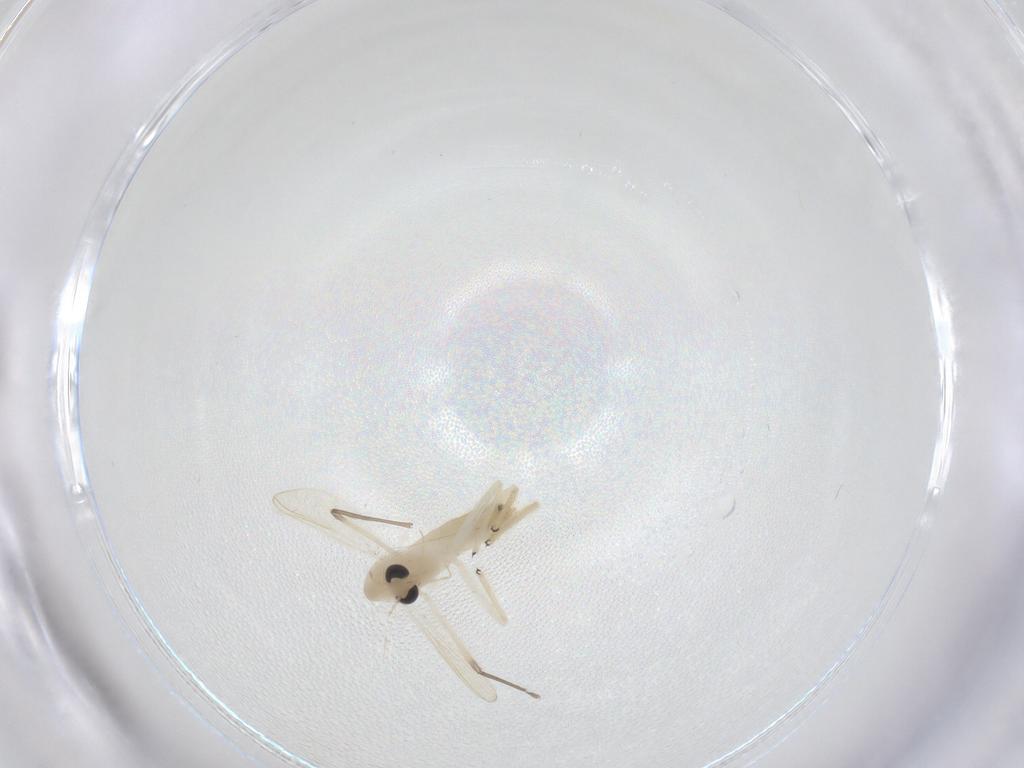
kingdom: Animalia
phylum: Arthropoda
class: Insecta
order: Diptera
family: Chironomidae
